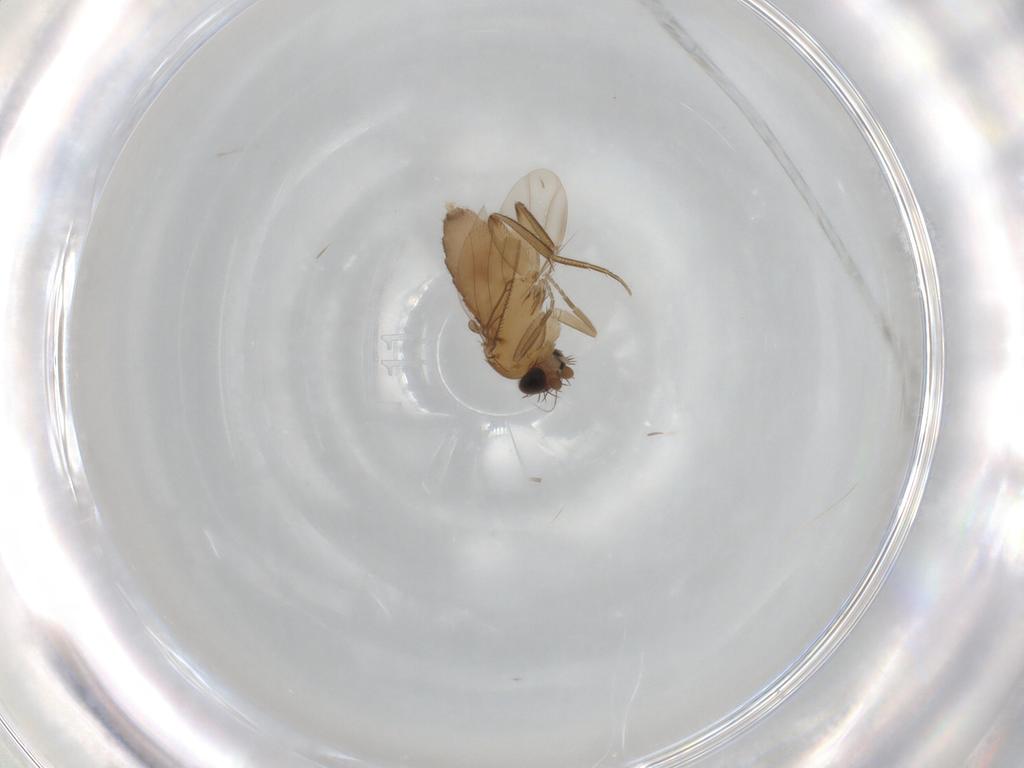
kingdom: Animalia
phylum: Arthropoda
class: Insecta
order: Diptera
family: Phoridae
